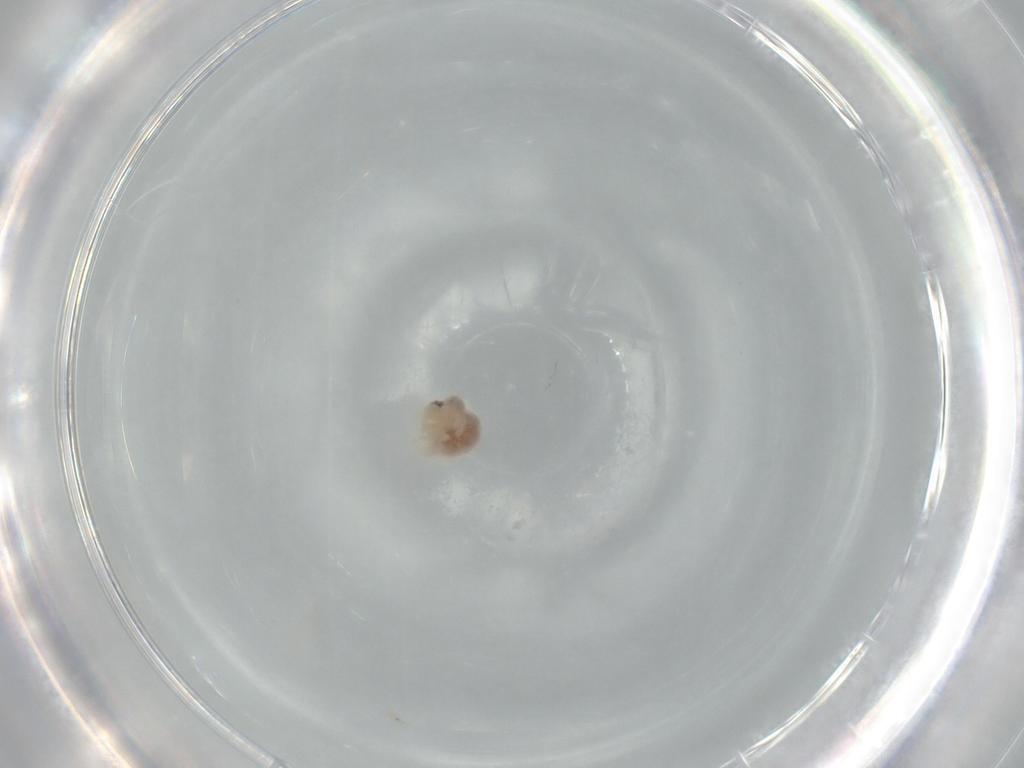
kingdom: Animalia
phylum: Arthropoda
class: Arachnida
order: Araneae
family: Pholcidae
